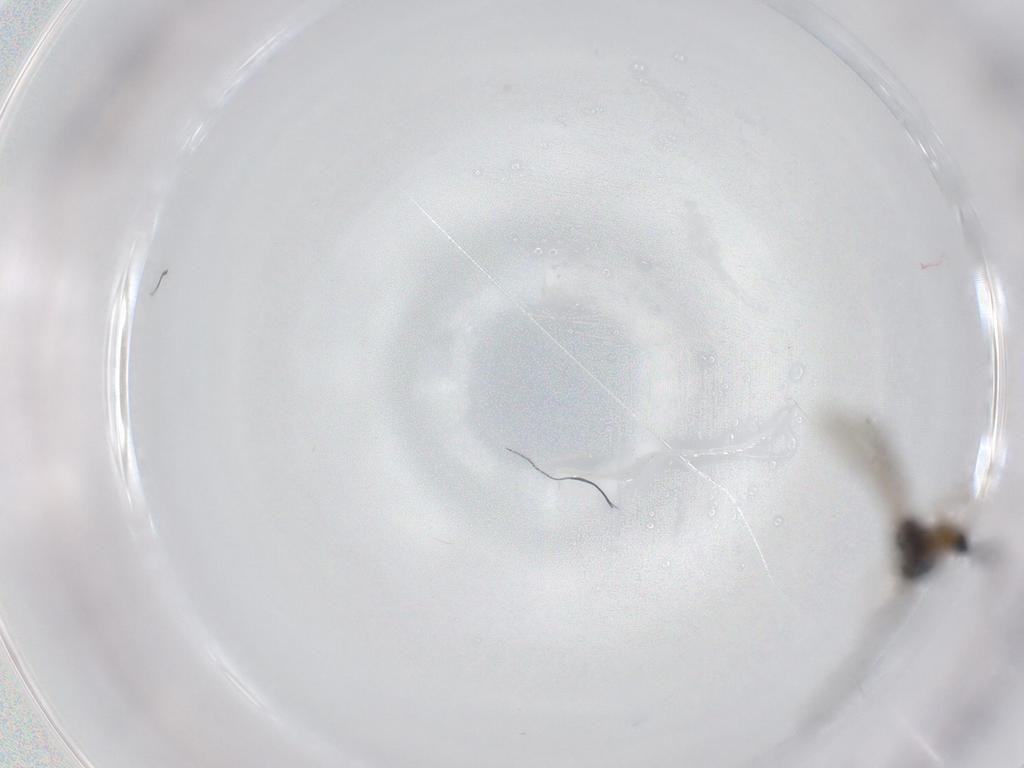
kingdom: Animalia
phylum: Arthropoda
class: Insecta
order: Hymenoptera
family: Figitidae
